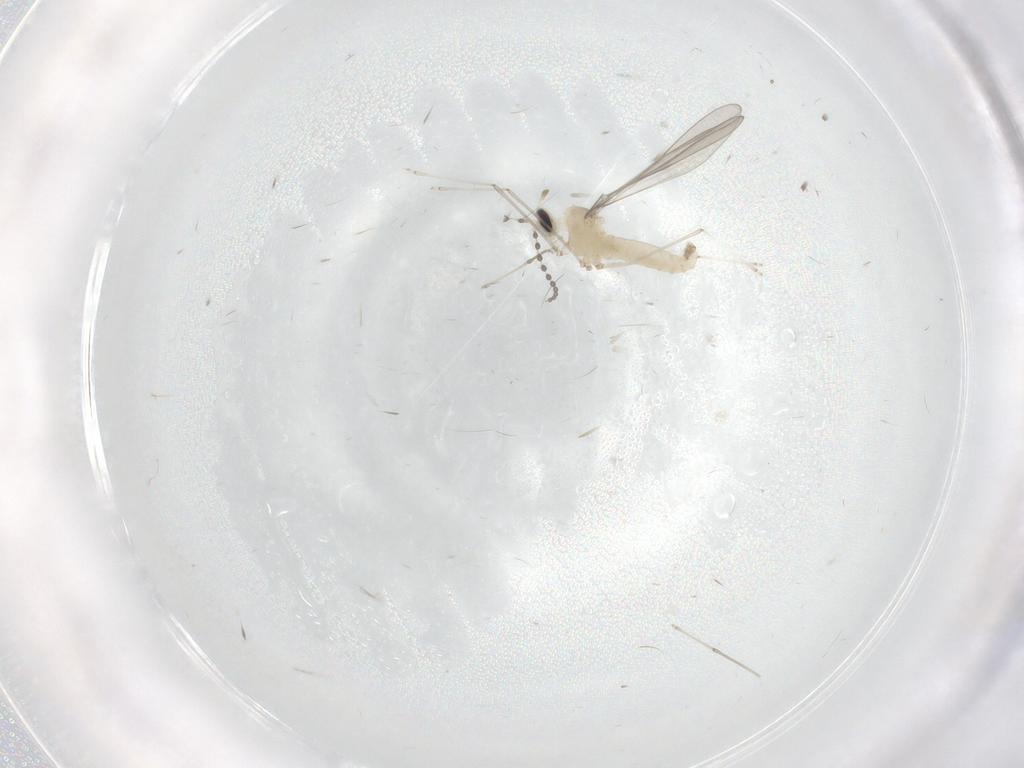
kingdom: Animalia
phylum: Arthropoda
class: Insecta
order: Diptera
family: Cecidomyiidae
